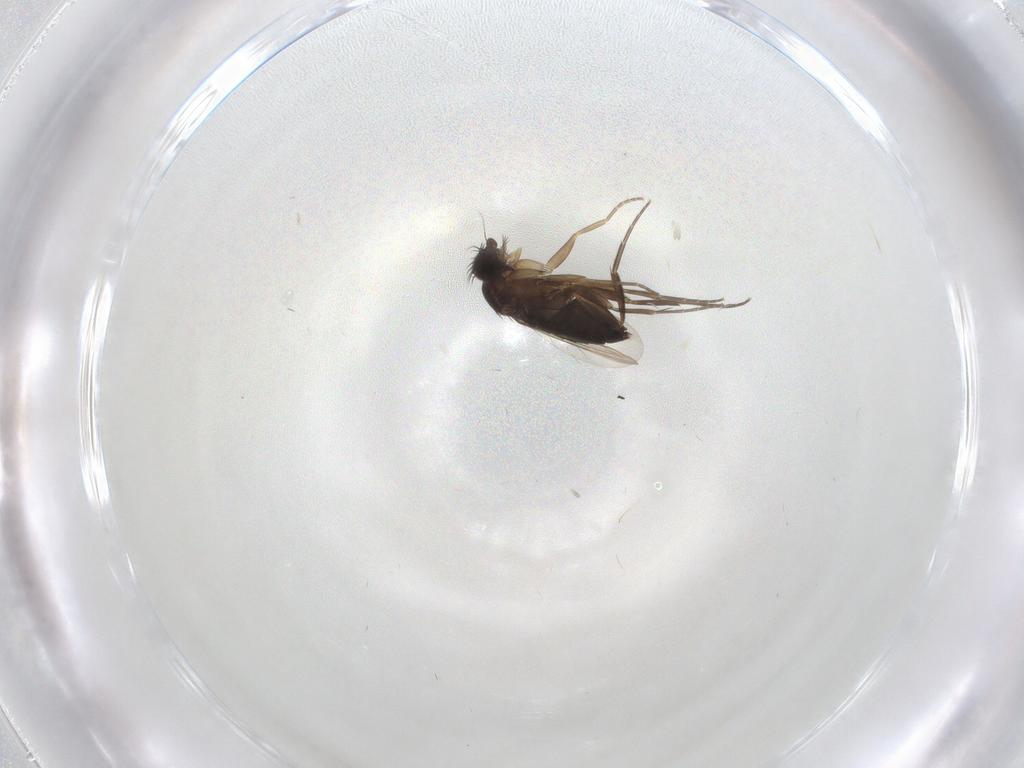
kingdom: Animalia
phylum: Arthropoda
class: Insecta
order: Diptera
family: Phoridae
